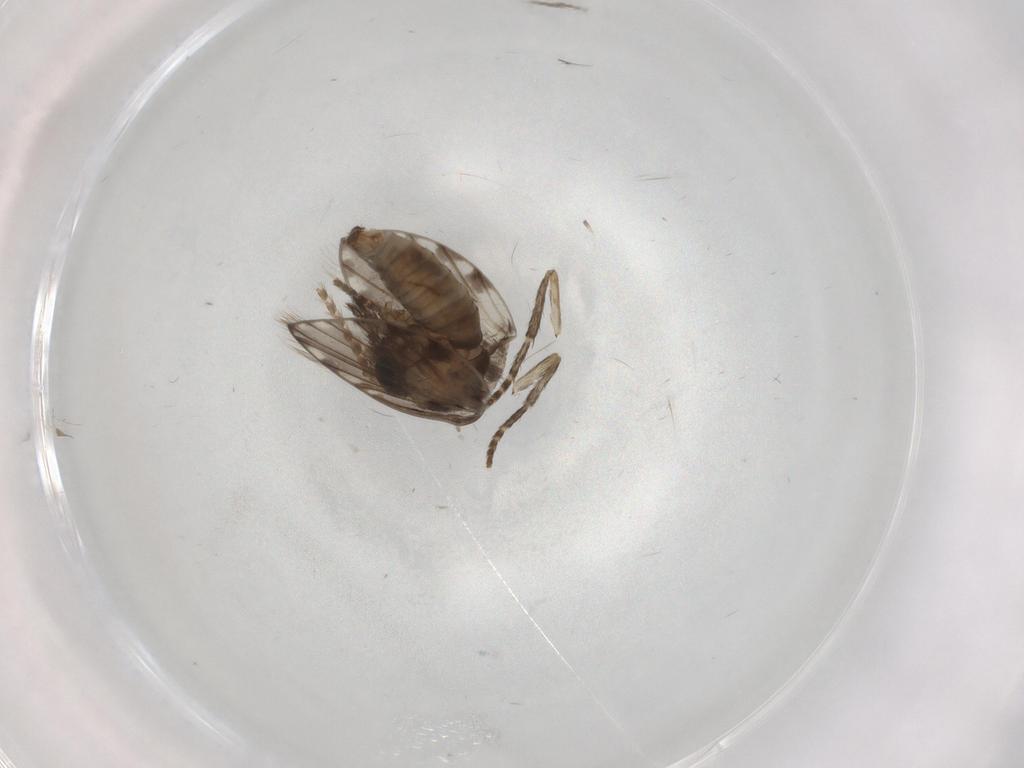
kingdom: Animalia
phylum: Arthropoda
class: Insecta
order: Diptera
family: Psychodidae
